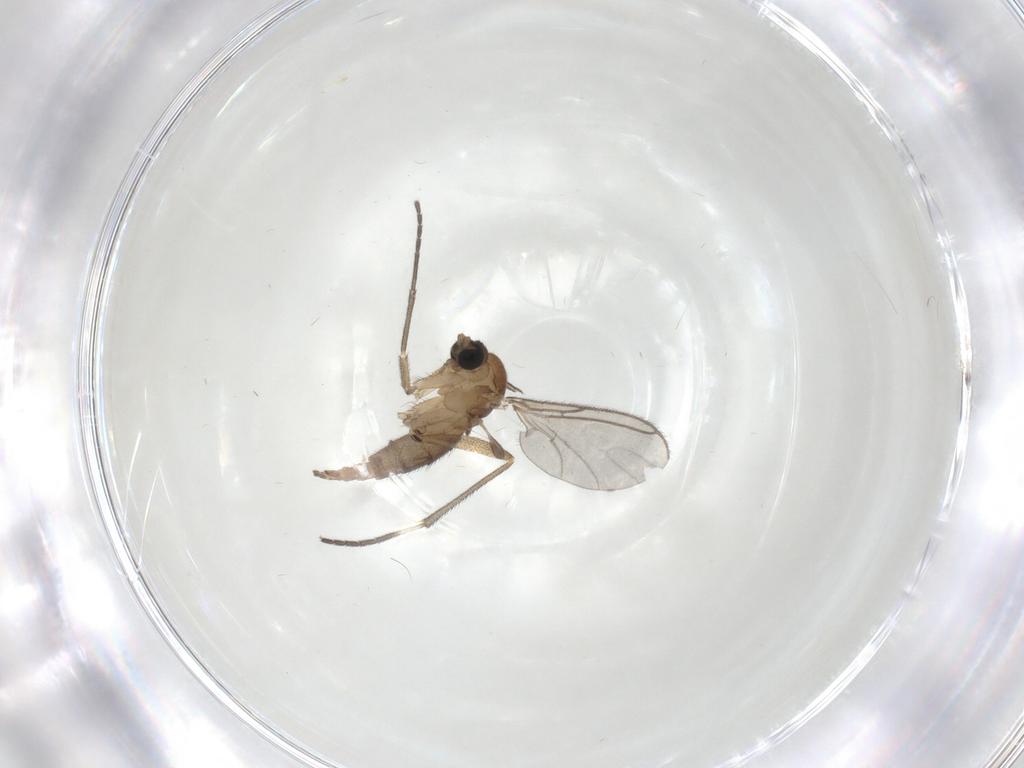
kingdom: Animalia
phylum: Arthropoda
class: Insecta
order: Diptera
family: Sciaridae
